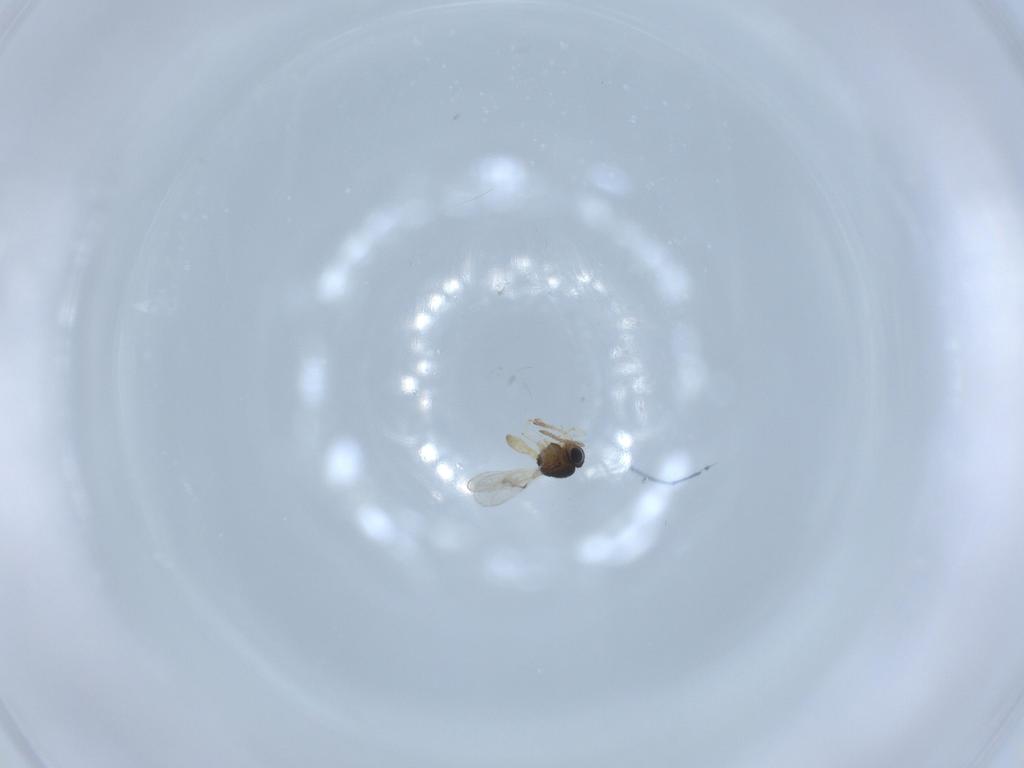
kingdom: Animalia
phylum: Arthropoda
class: Insecta
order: Hymenoptera
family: Scelionidae
